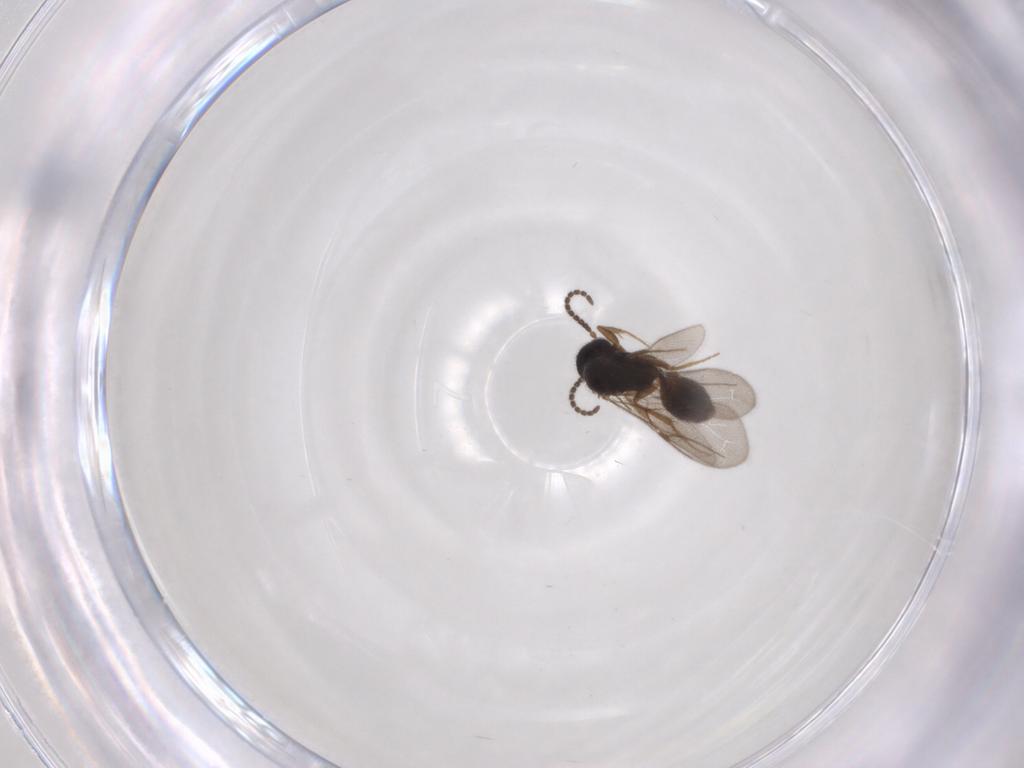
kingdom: Animalia
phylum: Arthropoda
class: Insecta
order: Hymenoptera
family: Bethylidae
